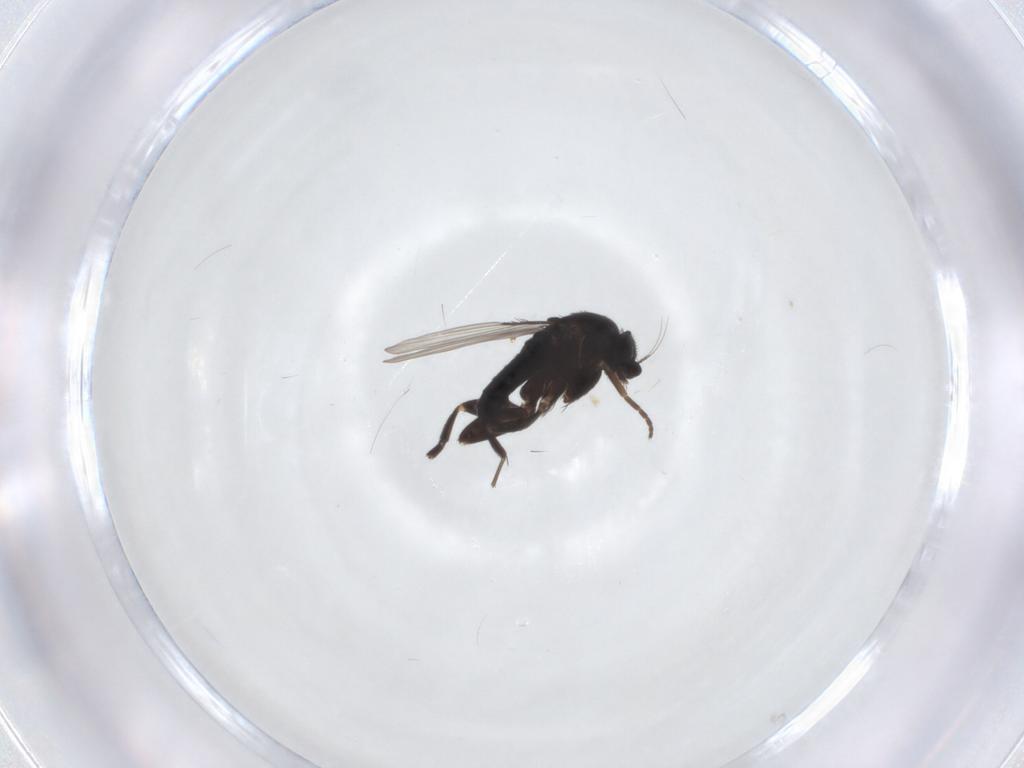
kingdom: Animalia
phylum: Arthropoda
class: Insecta
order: Diptera
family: Phoridae
